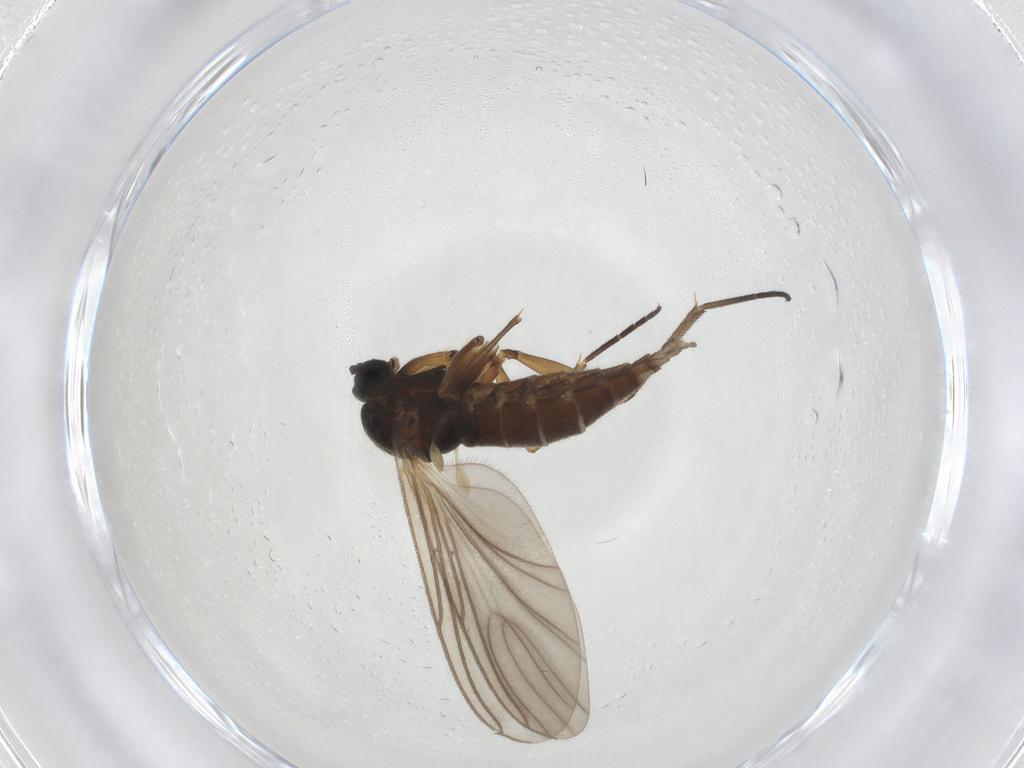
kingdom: Animalia
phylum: Arthropoda
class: Insecta
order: Diptera
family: Sciaridae
